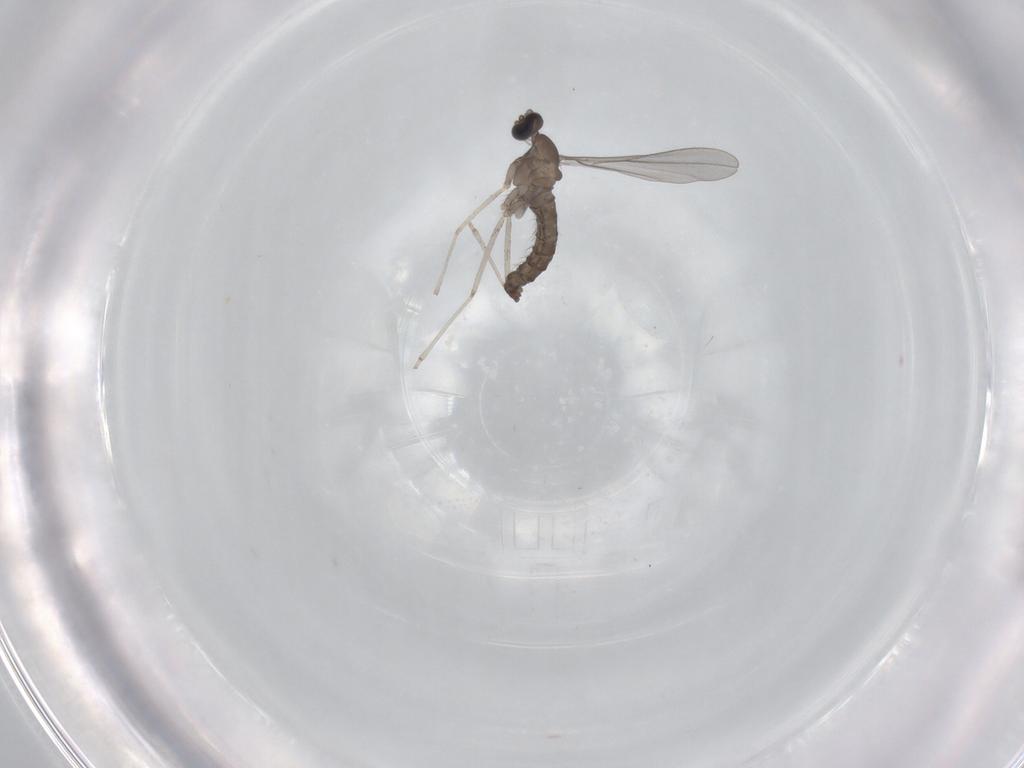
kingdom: Animalia
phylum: Arthropoda
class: Insecta
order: Diptera
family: Cecidomyiidae
